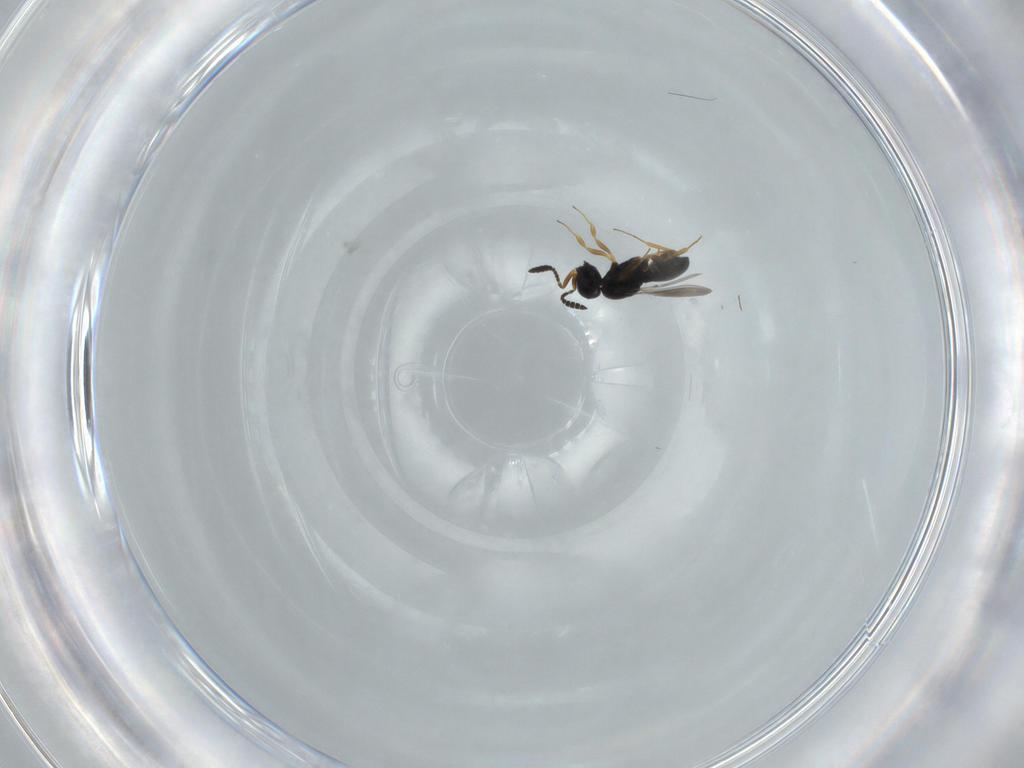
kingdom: Animalia
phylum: Arthropoda
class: Insecta
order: Hymenoptera
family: Scelionidae
